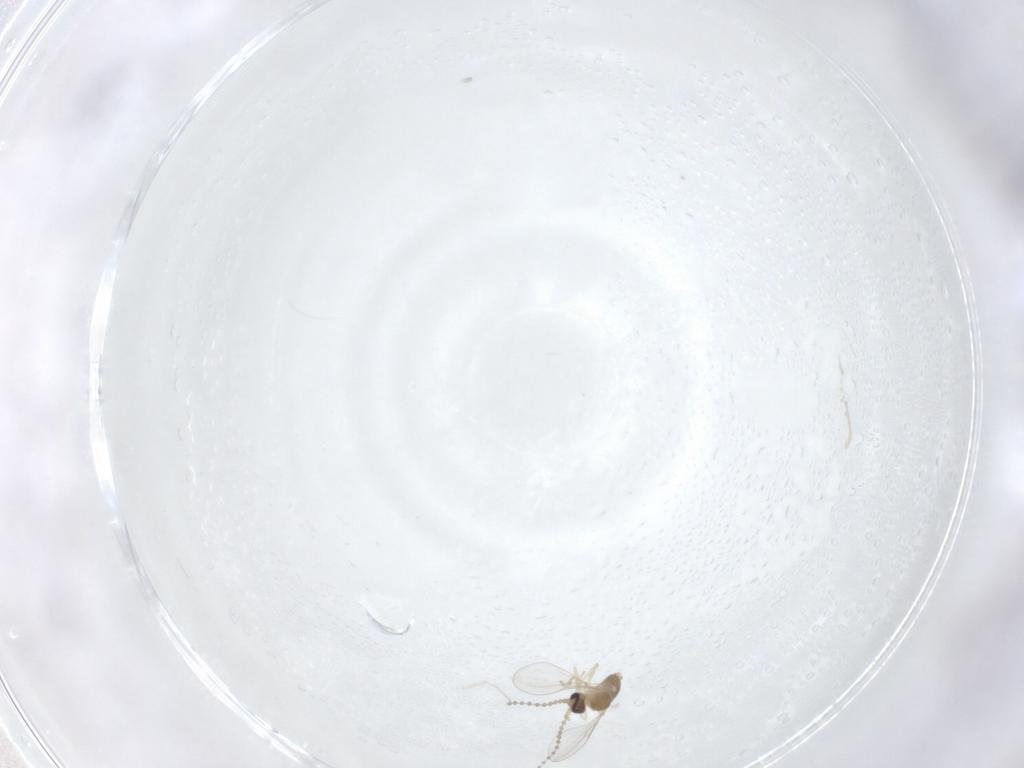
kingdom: Animalia
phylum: Arthropoda
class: Insecta
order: Diptera
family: Cecidomyiidae
